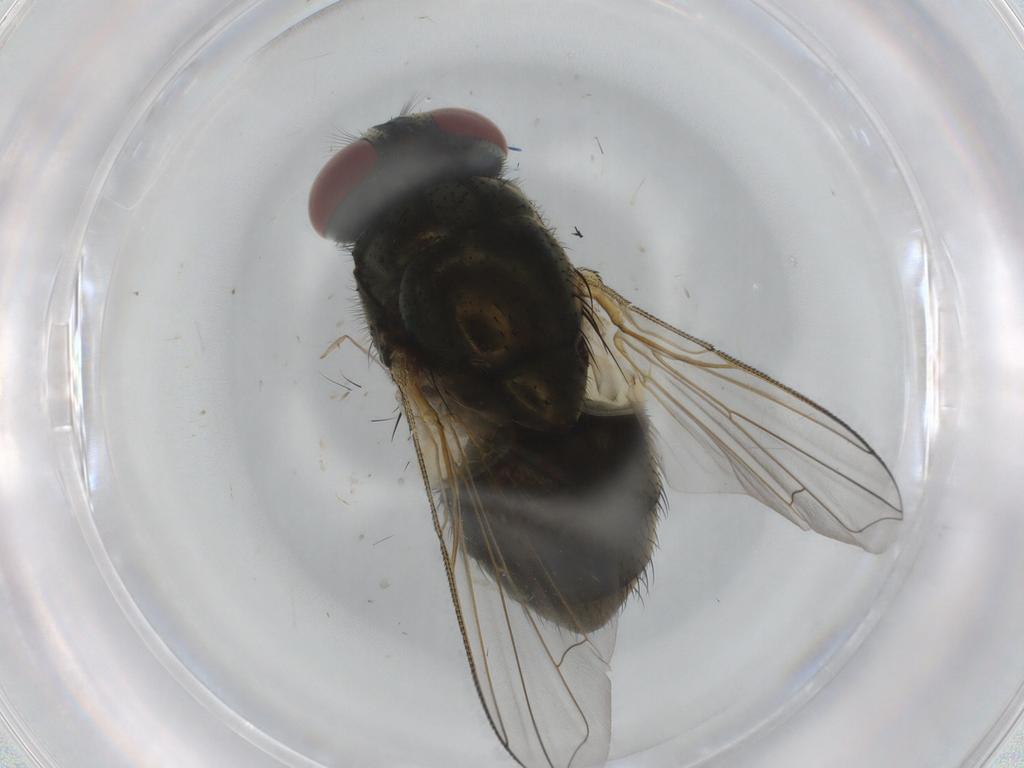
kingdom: Animalia
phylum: Arthropoda
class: Insecta
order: Diptera
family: Muscidae
